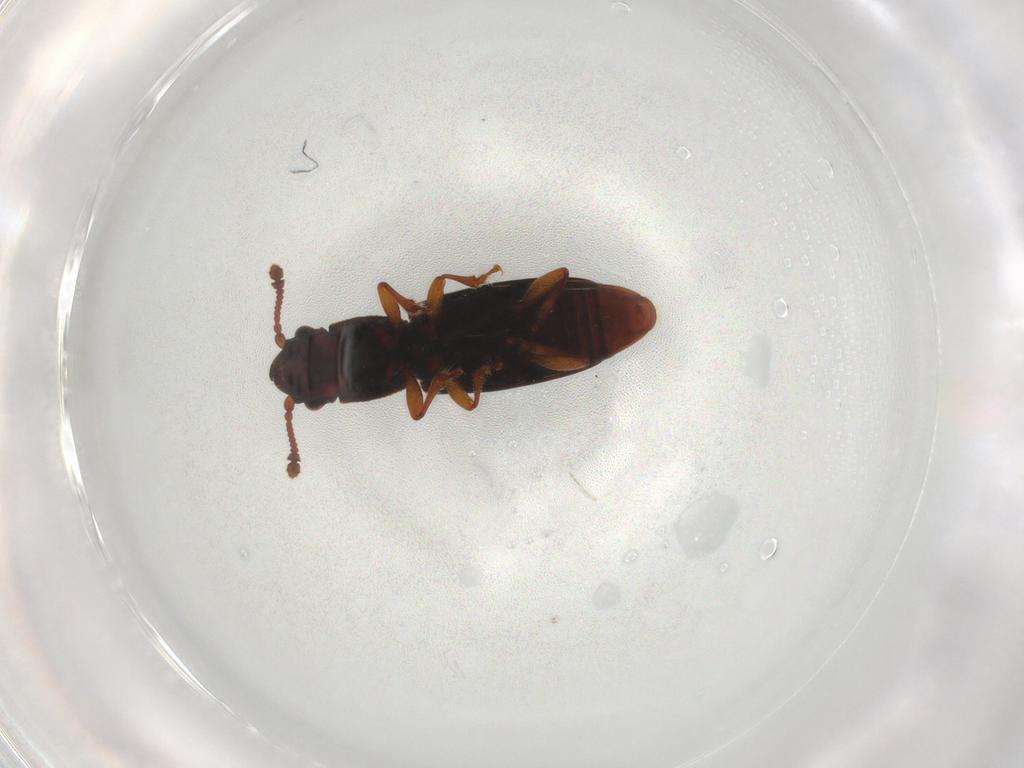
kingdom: Animalia
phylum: Arthropoda
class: Insecta
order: Coleoptera
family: Monotomidae
